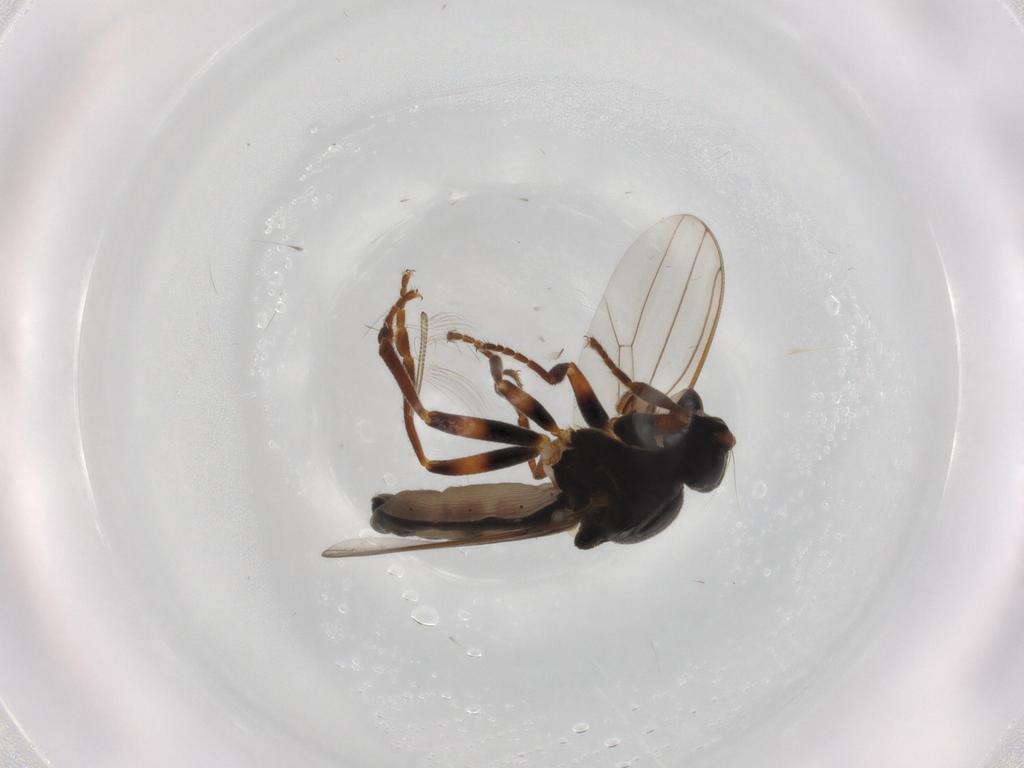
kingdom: Animalia
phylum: Arthropoda
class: Insecta
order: Diptera
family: Sphaeroceridae
